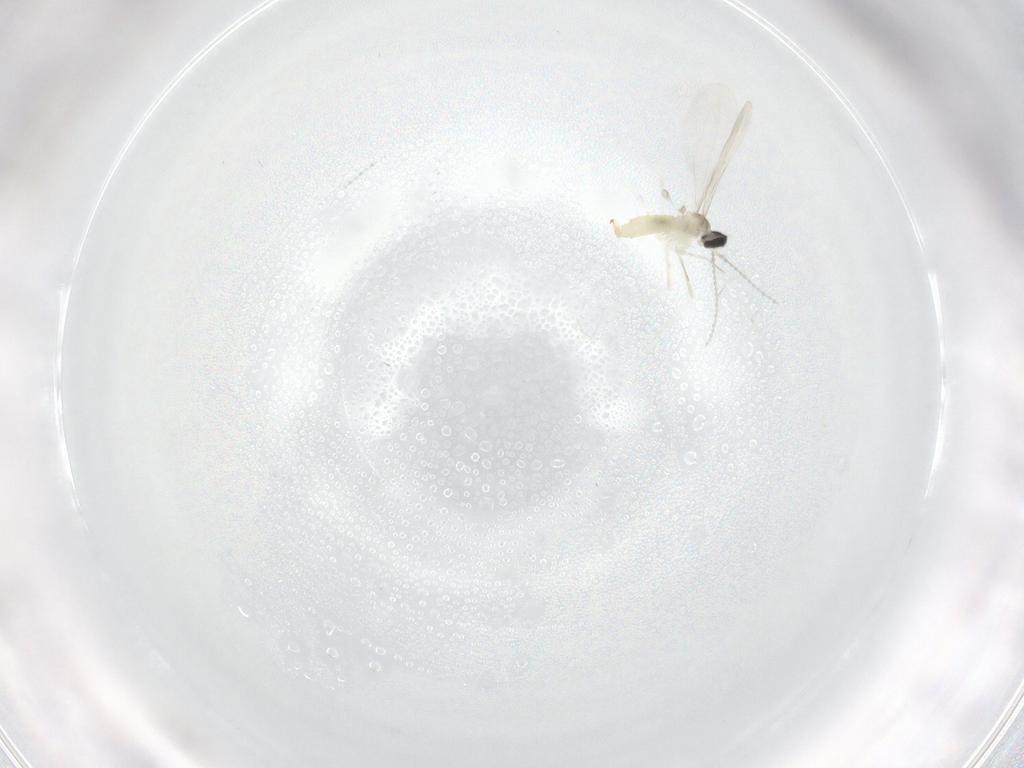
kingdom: Animalia
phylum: Arthropoda
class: Insecta
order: Diptera
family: Cecidomyiidae
